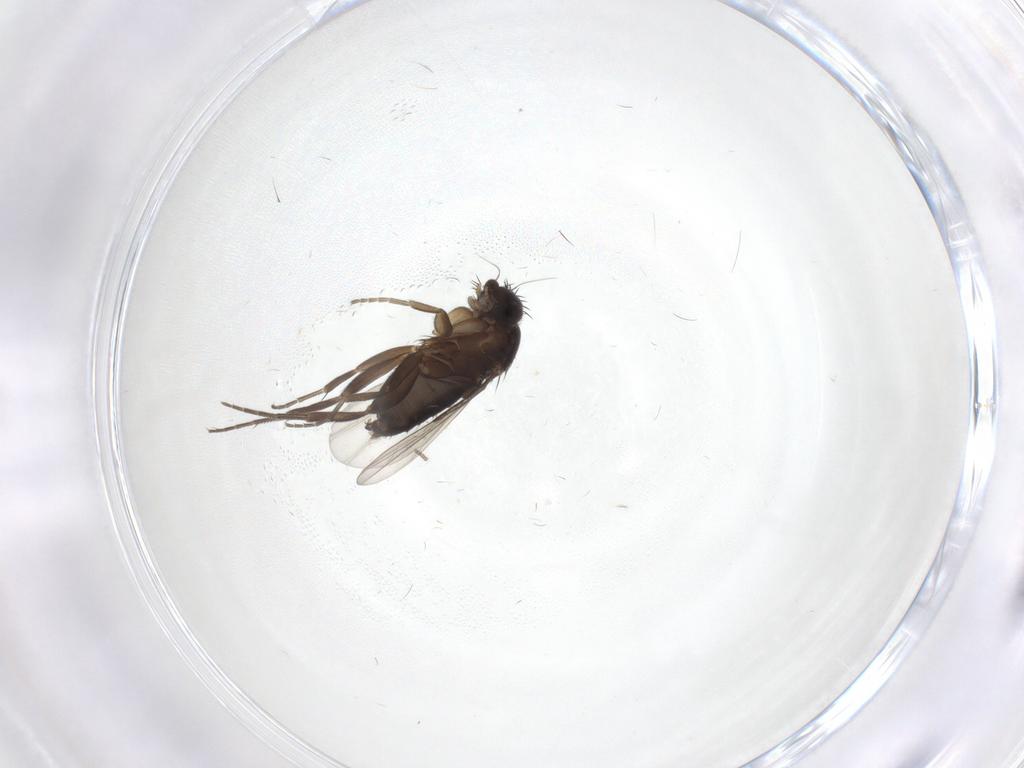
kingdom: Animalia
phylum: Arthropoda
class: Insecta
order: Diptera
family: Phoridae
